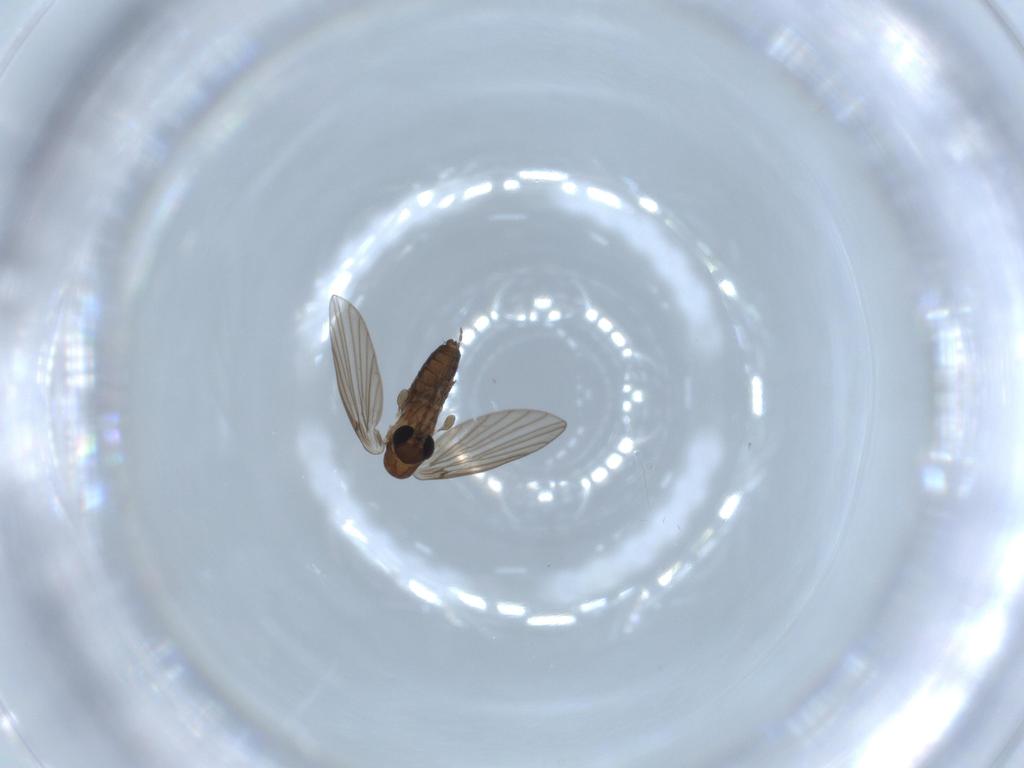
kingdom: Animalia
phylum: Arthropoda
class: Insecta
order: Diptera
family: Psychodidae
